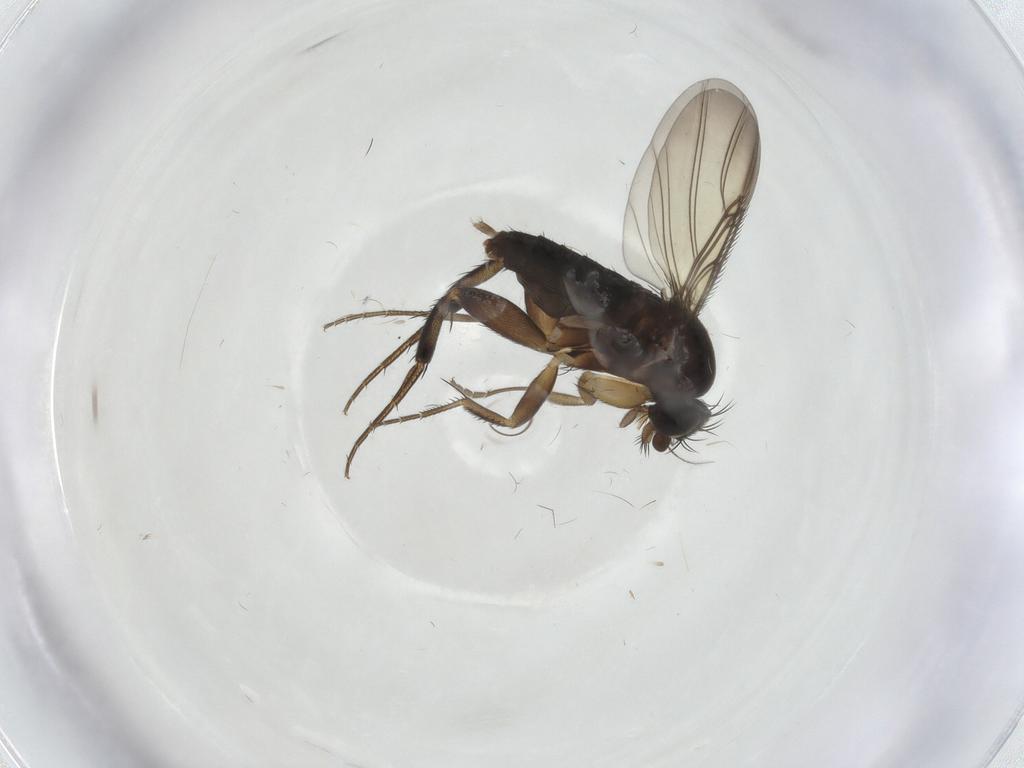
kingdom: Animalia
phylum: Arthropoda
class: Insecta
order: Diptera
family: Phoridae
